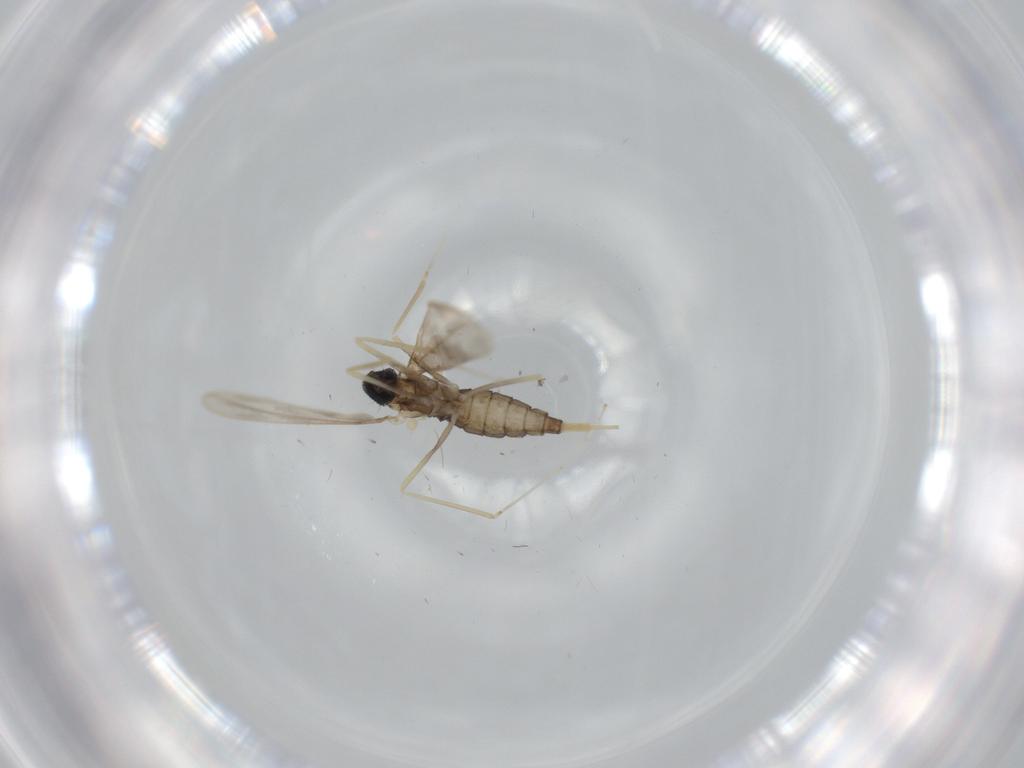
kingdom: Animalia
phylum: Arthropoda
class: Insecta
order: Diptera
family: Cecidomyiidae
